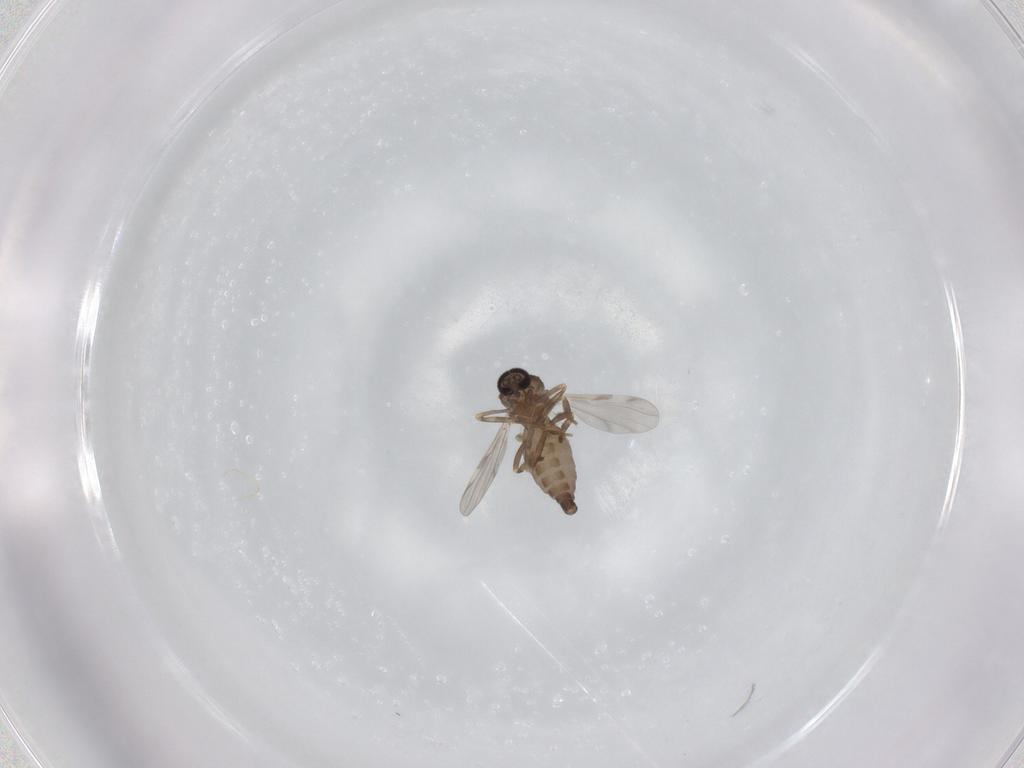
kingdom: Animalia
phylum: Arthropoda
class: Insecta
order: Diptera
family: Ceratopogonidae
